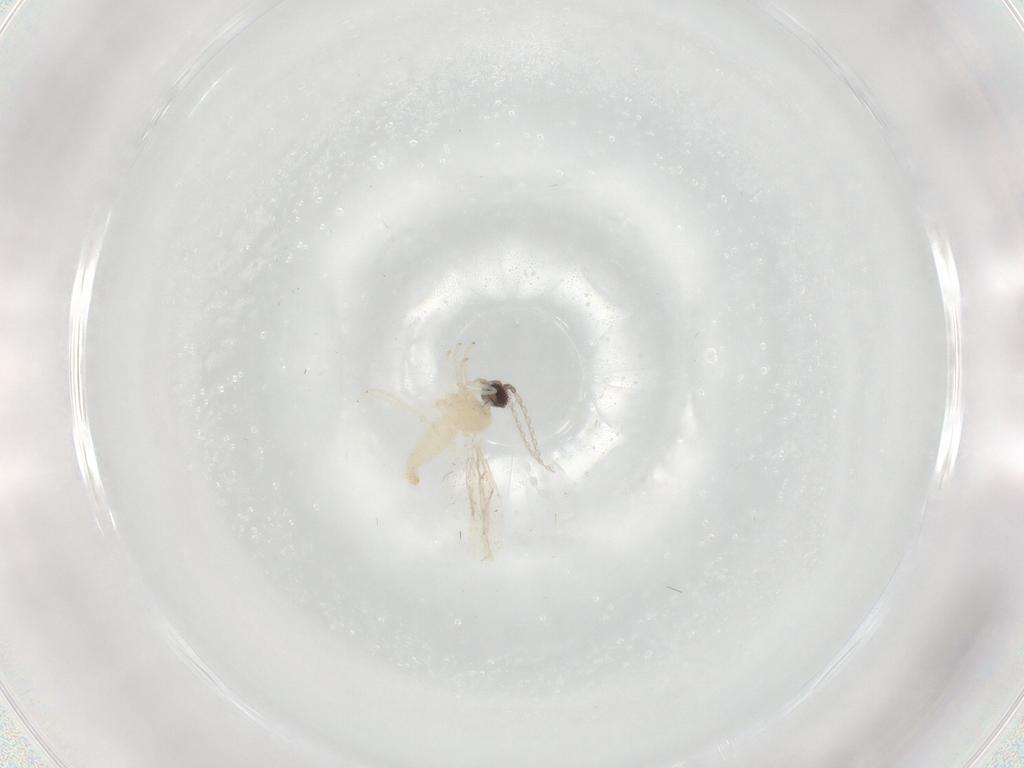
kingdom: Animalia
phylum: Arthropoda
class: Insecta
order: Diptera
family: Cecidomyiidae
